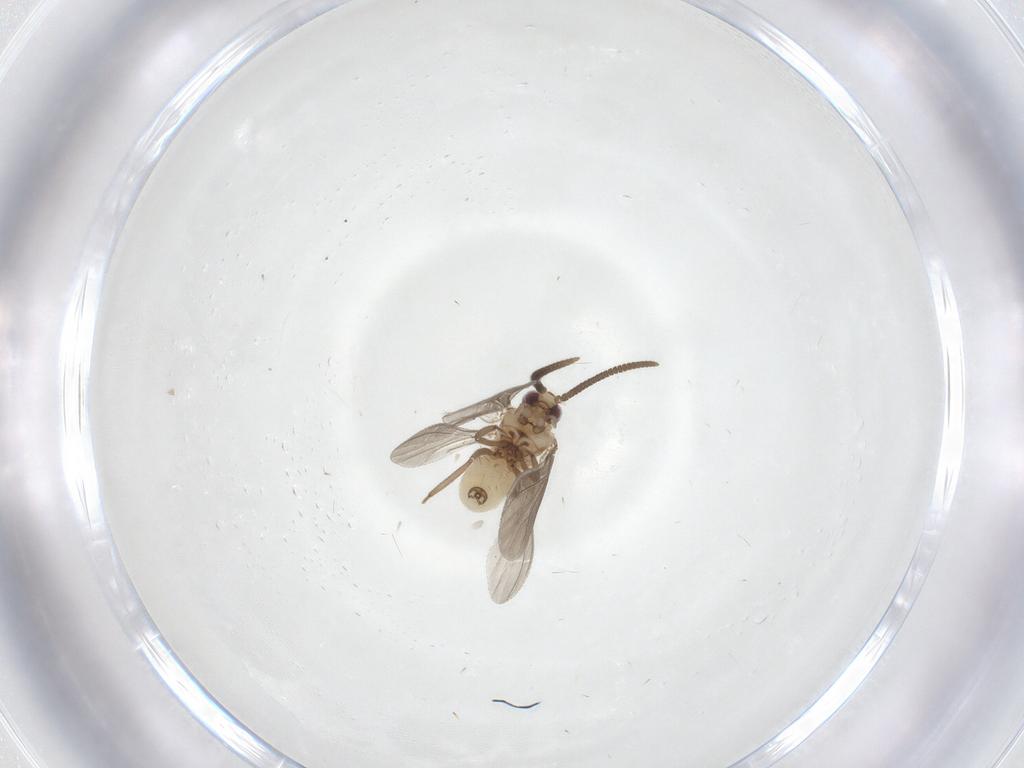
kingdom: Animalia
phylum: Arthropoda
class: Insecta
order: Neuroptera
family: Coniopterygidae
